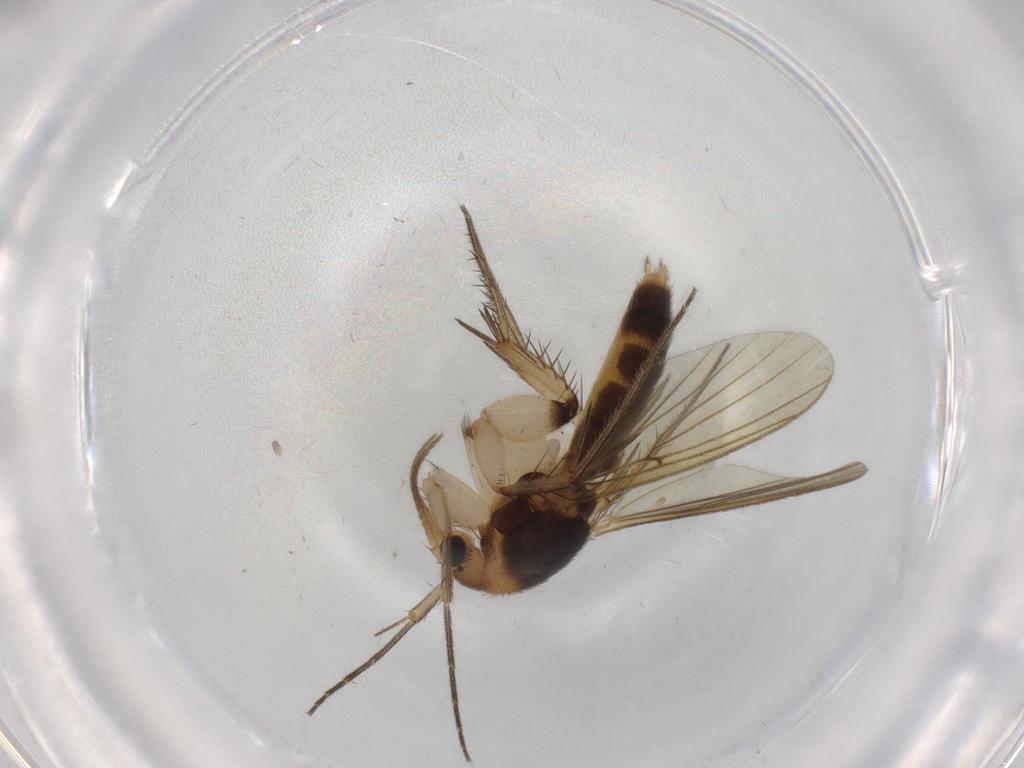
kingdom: Animalia
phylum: Arthropoda
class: Insecta
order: Diptera
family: Mycetophilidae
